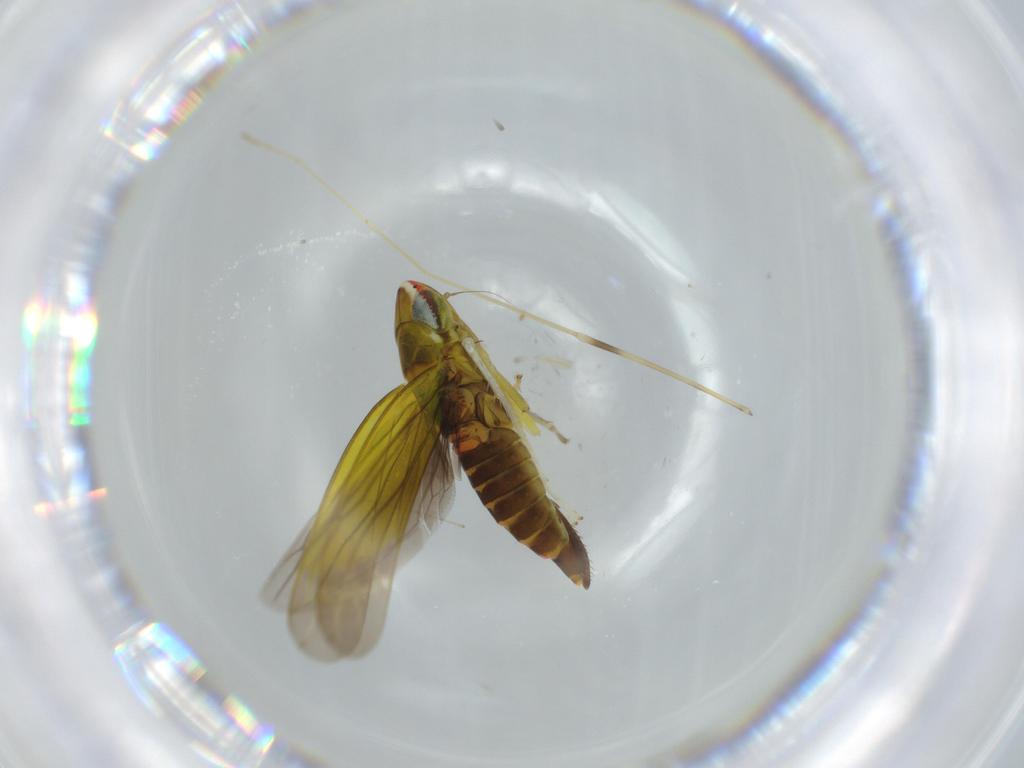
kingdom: Animalia
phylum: Arthropoda
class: Insecta
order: Hemiptera
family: Cicadellidae
